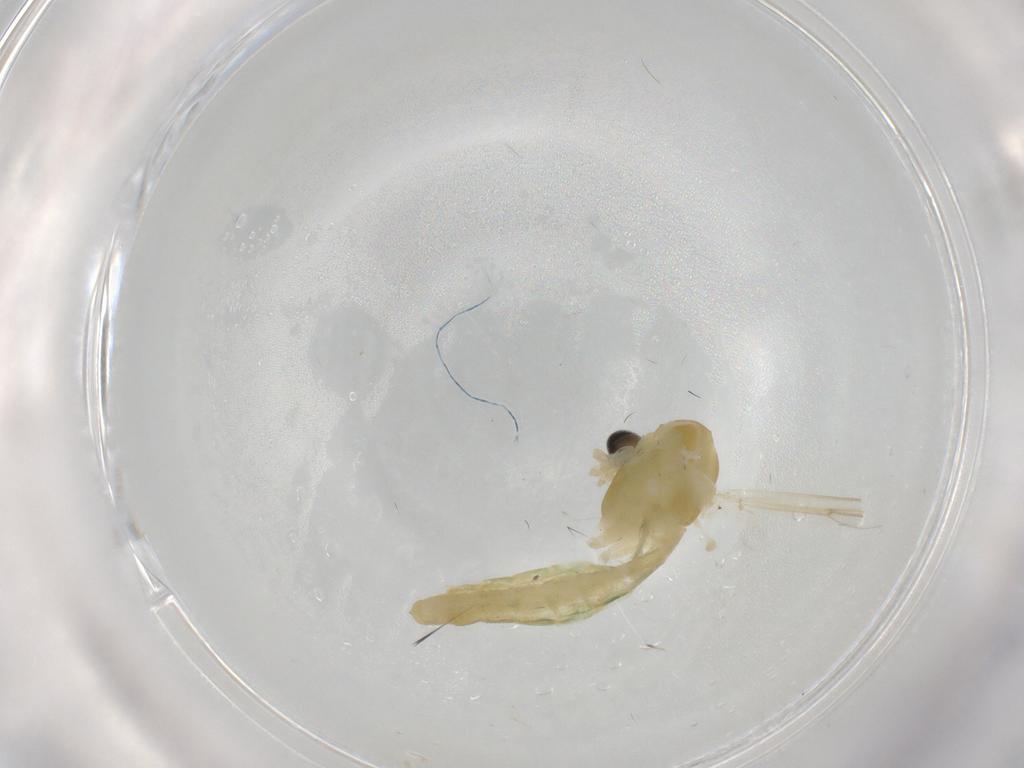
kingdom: Animalia
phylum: Arthropoda
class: Insecta
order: Diptera
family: Chironomidae
